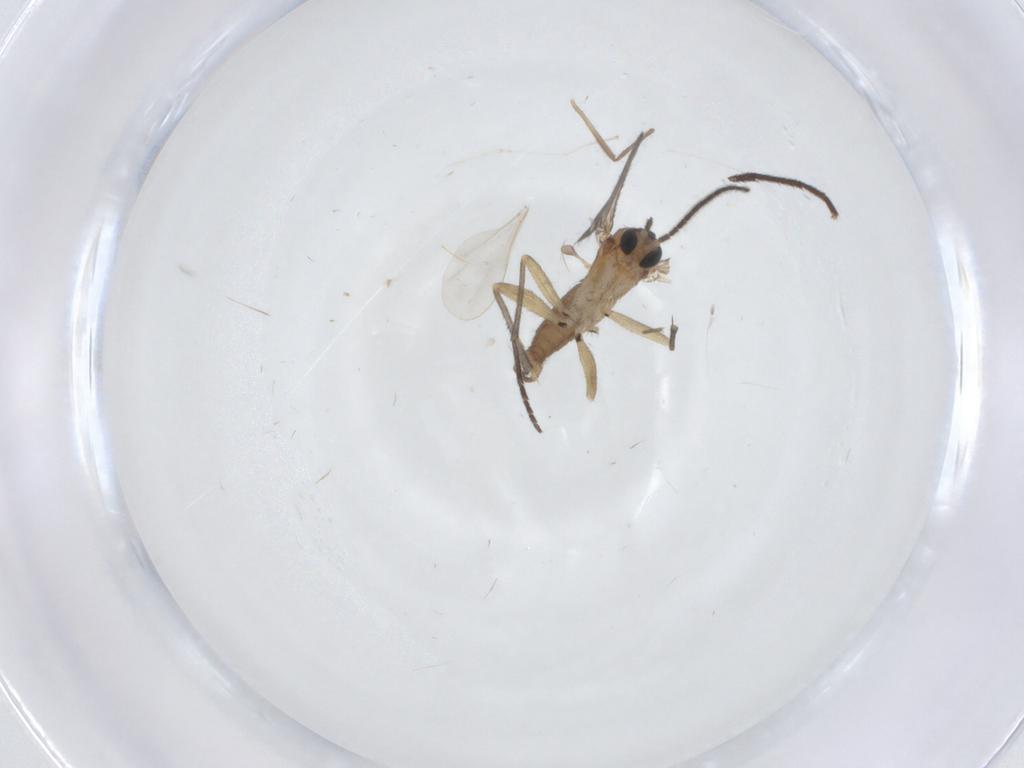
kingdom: Animalia
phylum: Arthropoda
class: Insecta
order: Diptera
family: Sciaridae
